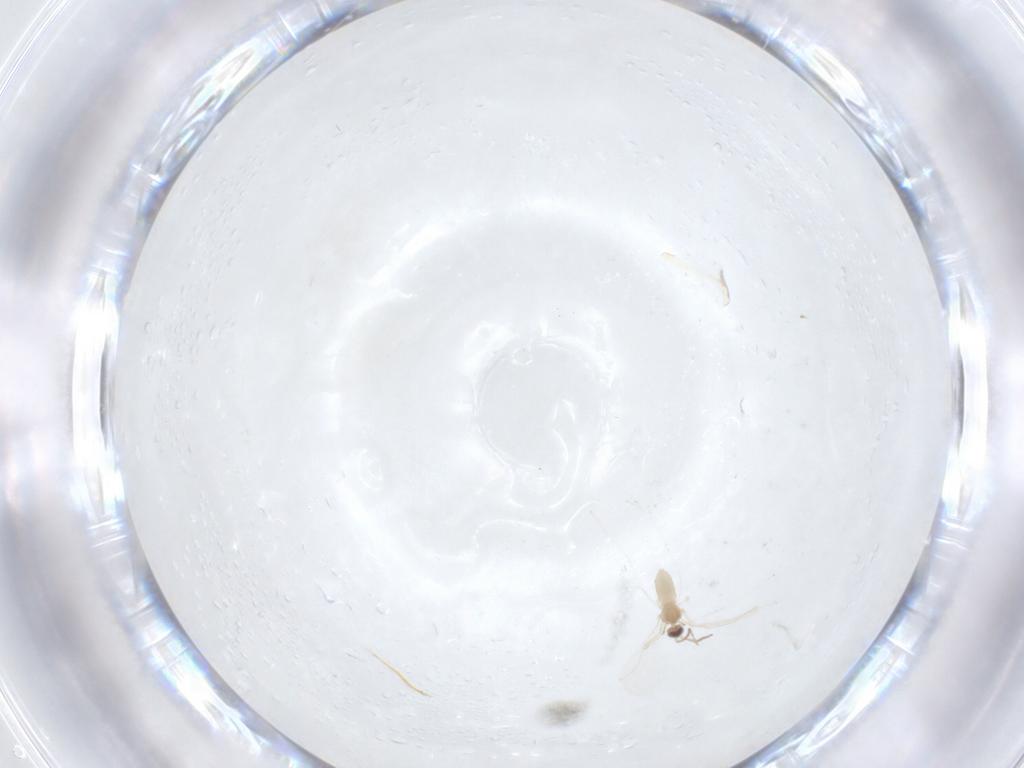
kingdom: Animalia
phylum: Arthropoda
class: Insecta
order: Diptera
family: Cecidomyiidae
